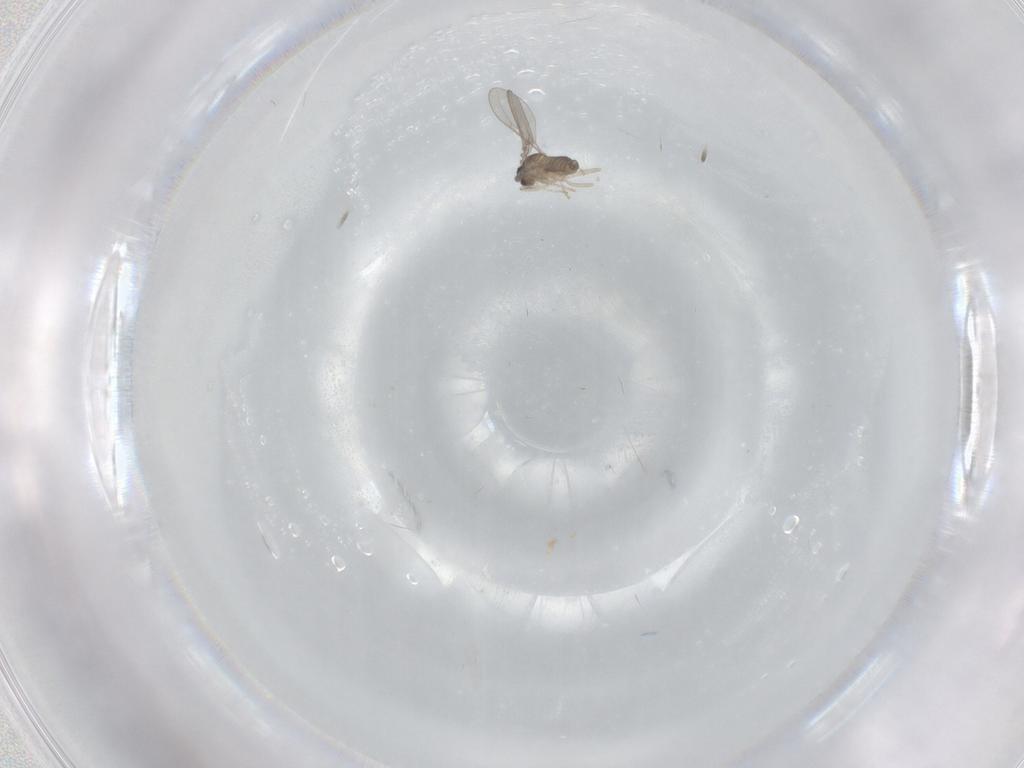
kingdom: Animalia
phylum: Arthropoda
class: Insecta
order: Diptera
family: Cecidomyiidae
